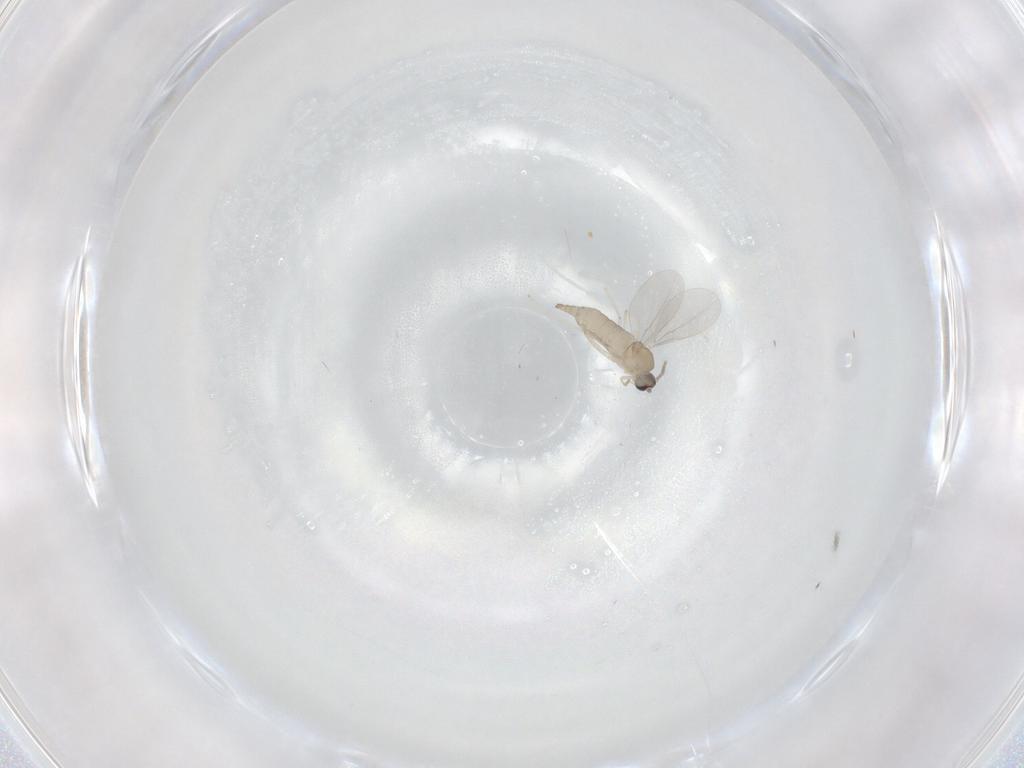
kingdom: Animalia
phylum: Arthropoda
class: Insecta
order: Diptera
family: Cecidomyiidae
